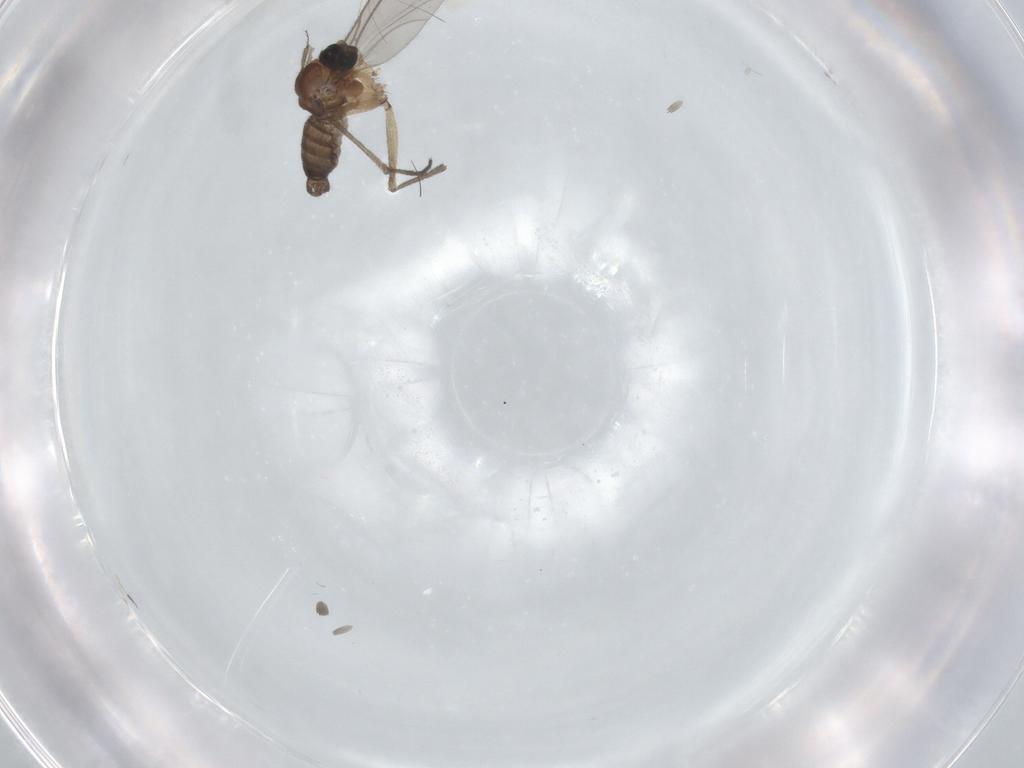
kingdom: Animalia
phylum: Arthropoda
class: Insecta
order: Diptera
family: Sciaridae
